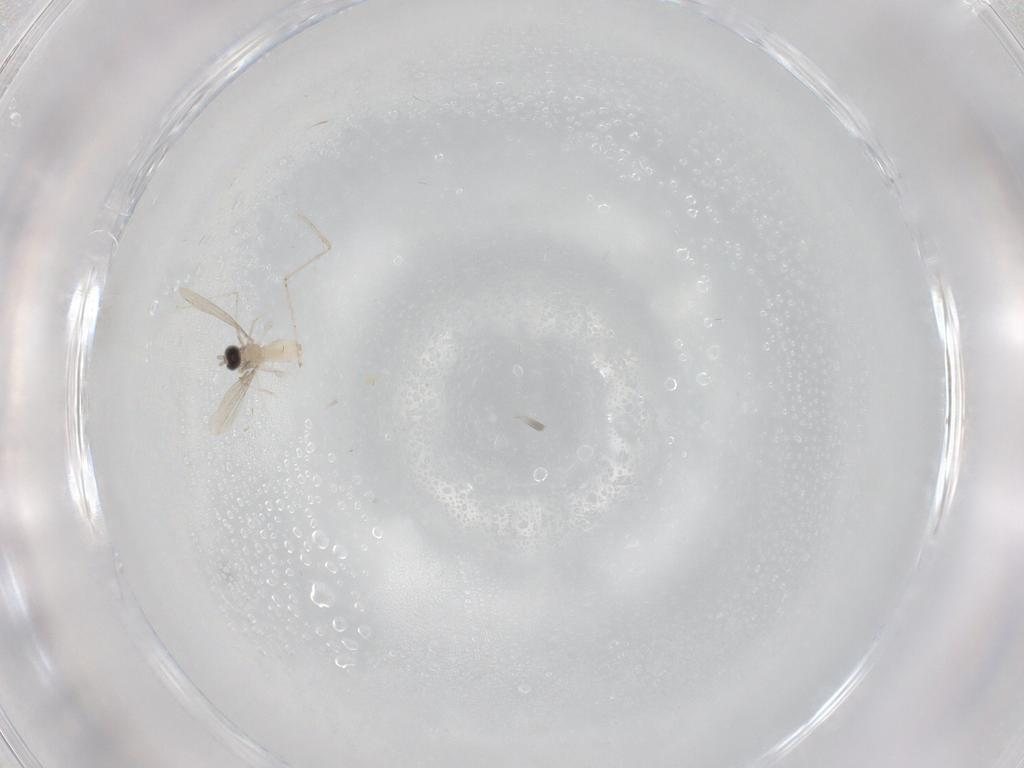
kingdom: Animalia
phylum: Arthropoda
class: Insecta
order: Diptera
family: Cecidomyiidae
